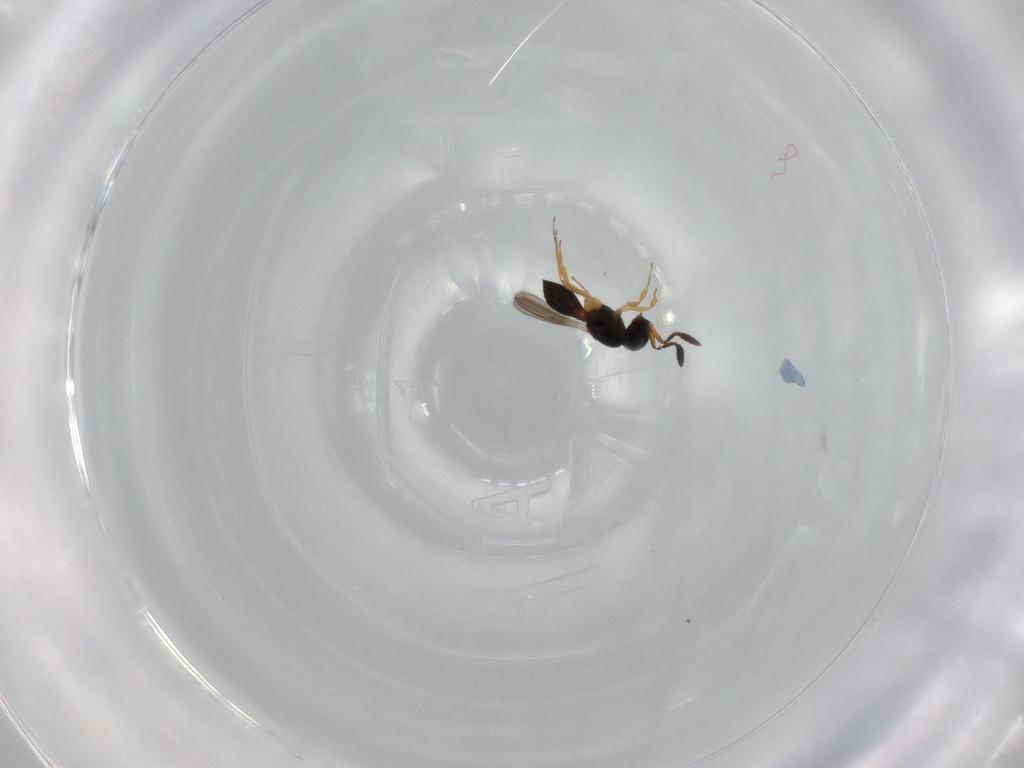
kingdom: Animalia
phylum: Arthropoda
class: Insecta
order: Hymenoptera
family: Scelionidae
